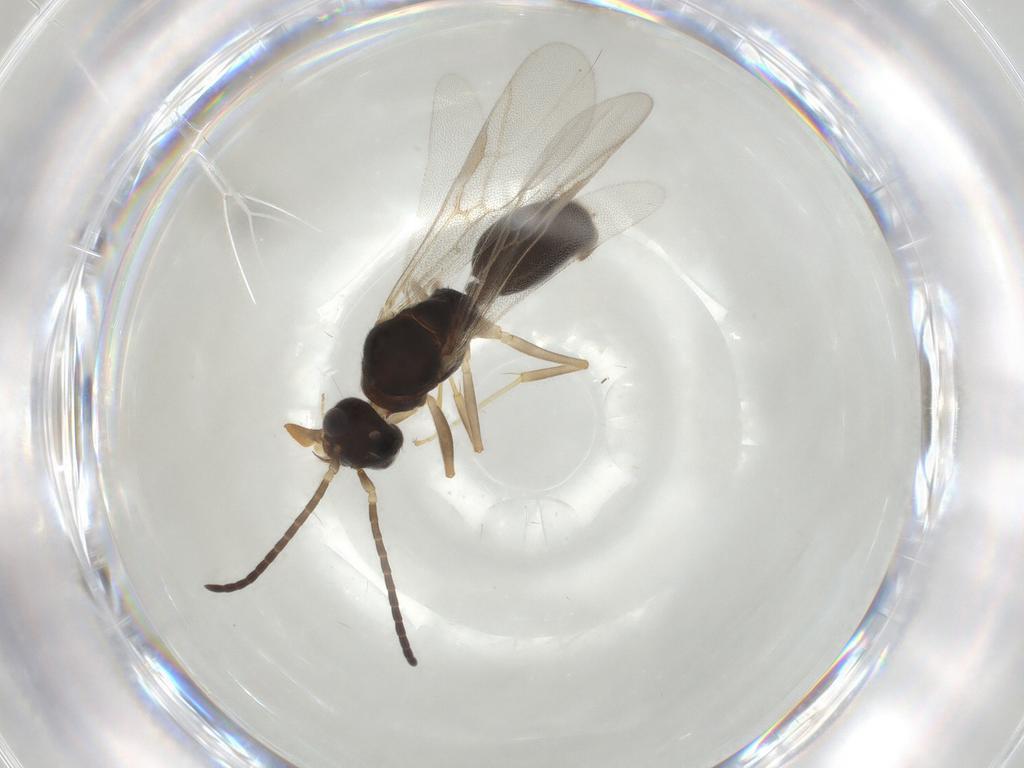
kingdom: Animalia
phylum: Arthropoda
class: Insecta
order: Hymenoptera
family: Formicidae
